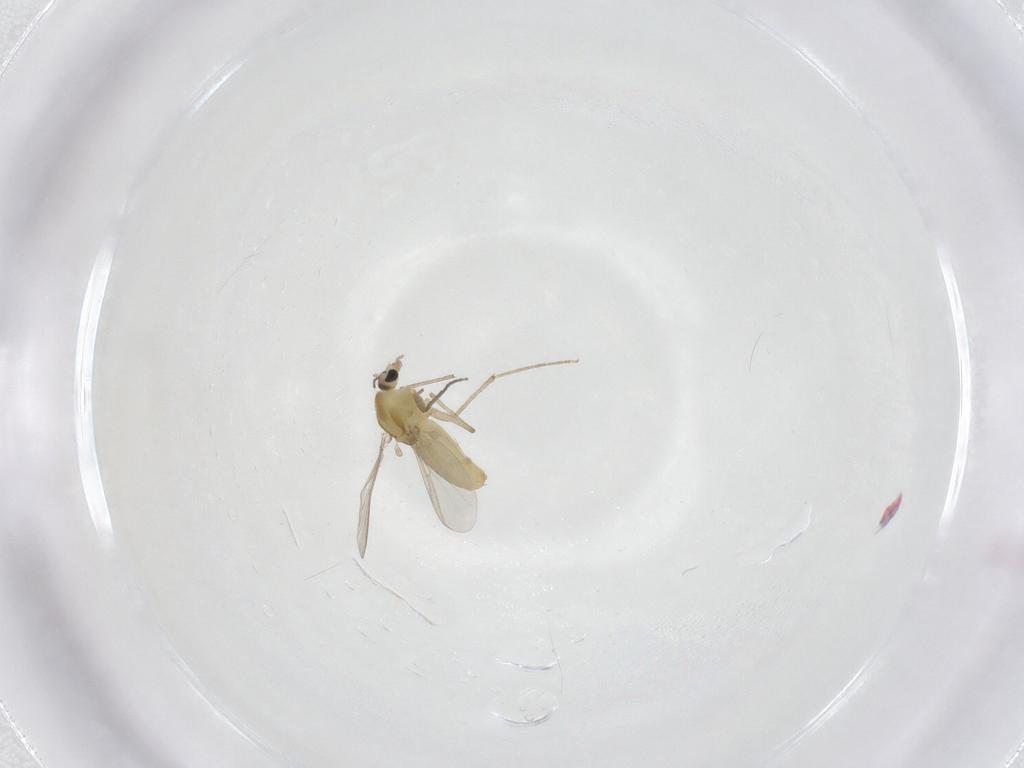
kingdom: Animalia
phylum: Arthropoda
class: Insecta
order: Diptera
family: Chironomidae
